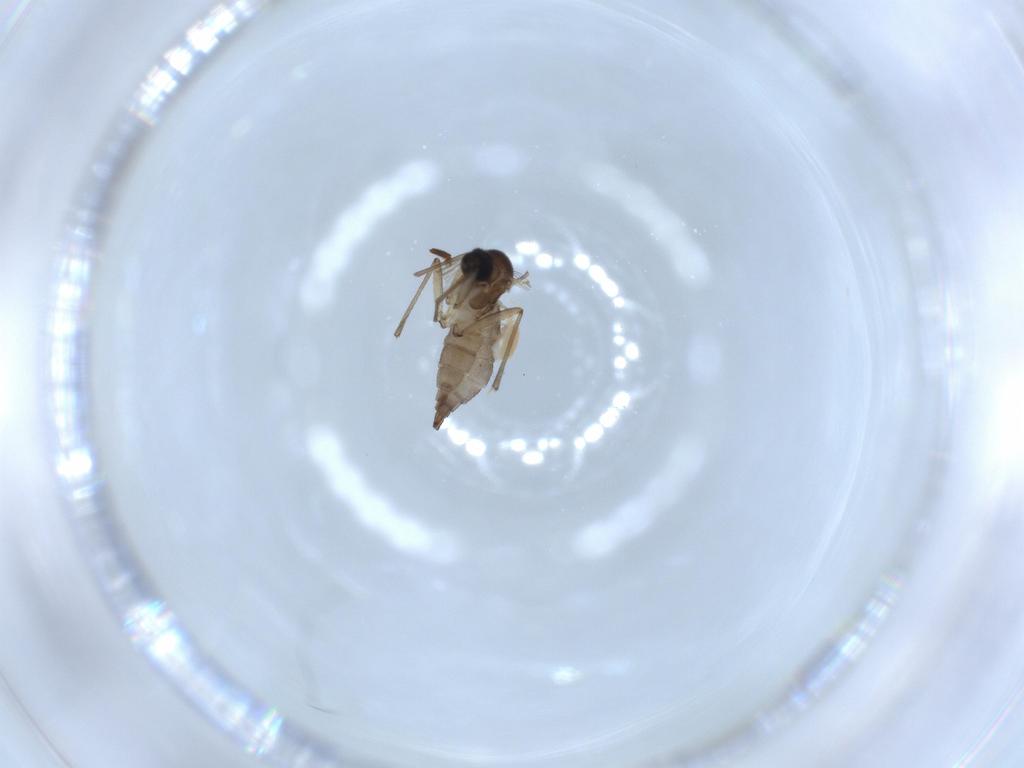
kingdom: Animalia
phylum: Arthropoda
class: Insecta
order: Diptera
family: Sciaridae
